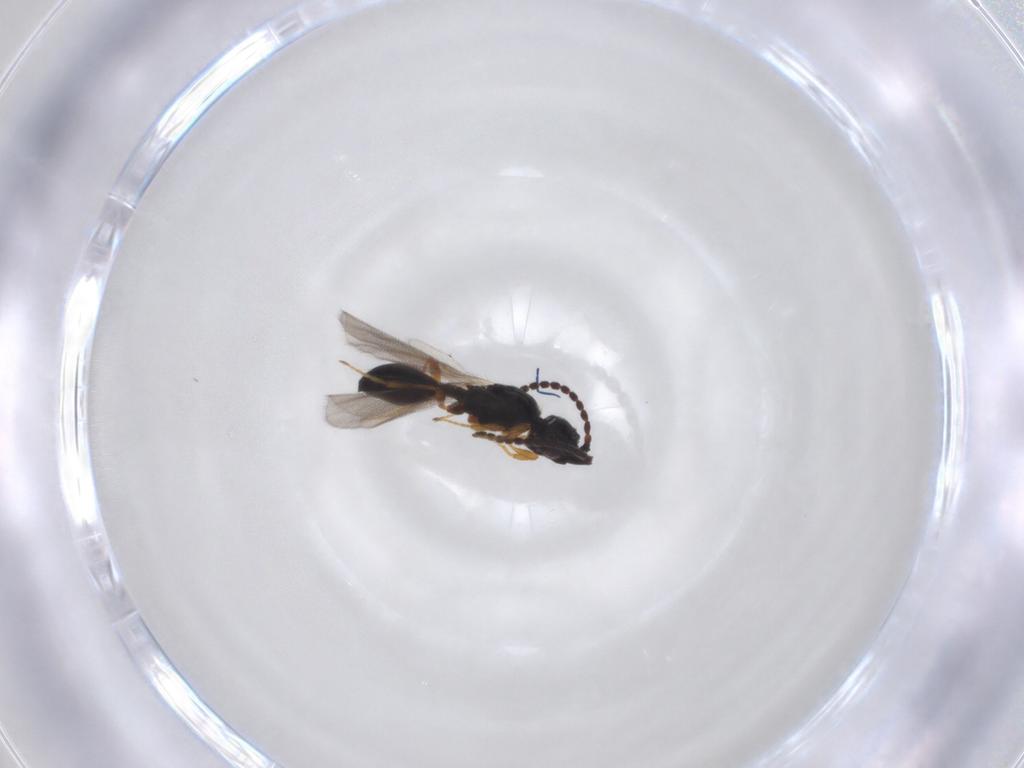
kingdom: Animalia
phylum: Arthropoda
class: Insecta
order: Hymenoptera
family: Diapriidae
